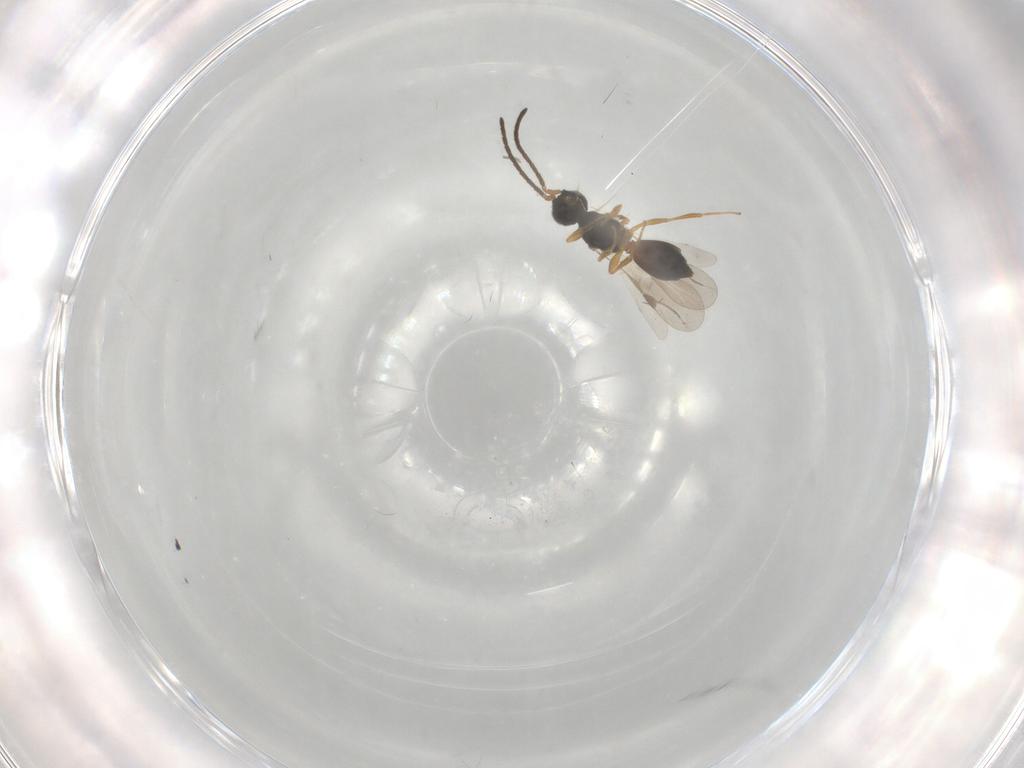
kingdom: Animalia
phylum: Arthropoda
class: Insecta
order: Hymenoptera
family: Megaspilidae
